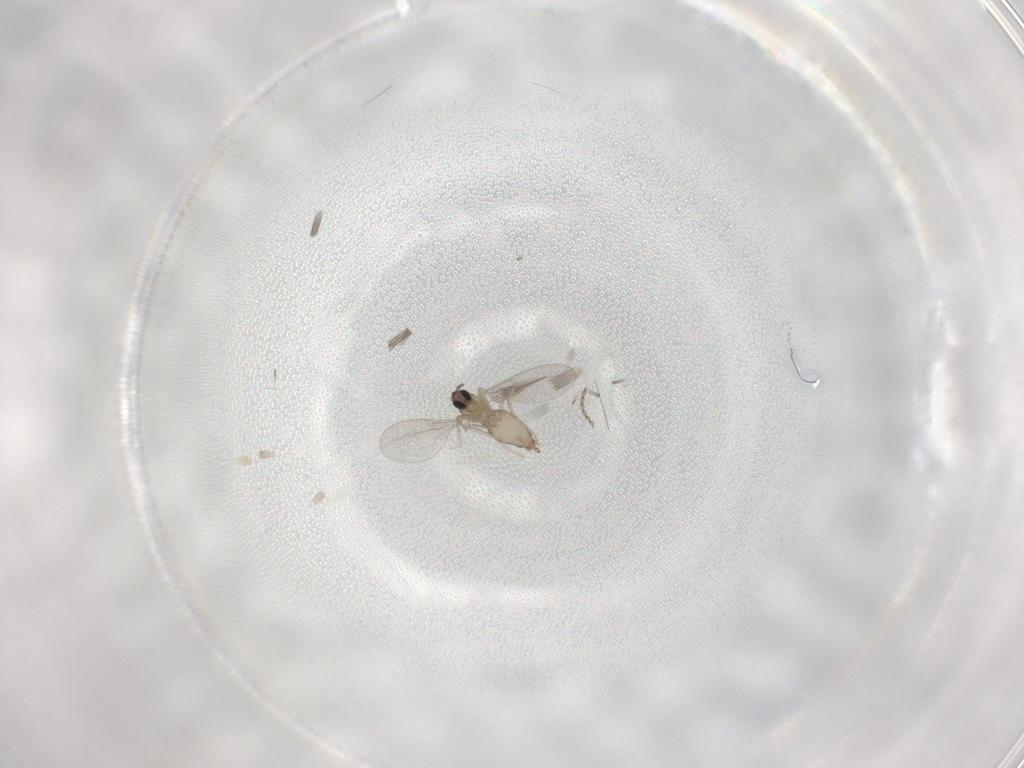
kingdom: Animalia
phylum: Arthropoda
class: Insecta
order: Diptera
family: Cecidomyiidae
